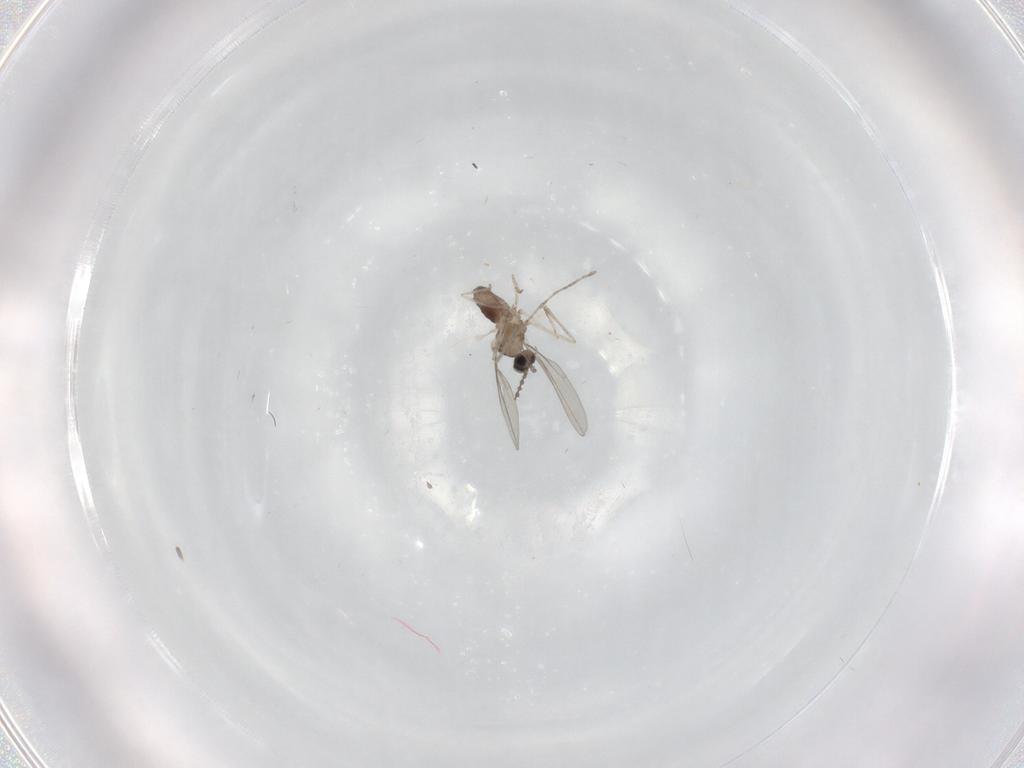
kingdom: Animalia
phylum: Arthropoda
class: Insecta
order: Diptera
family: Cecidomyiidae
